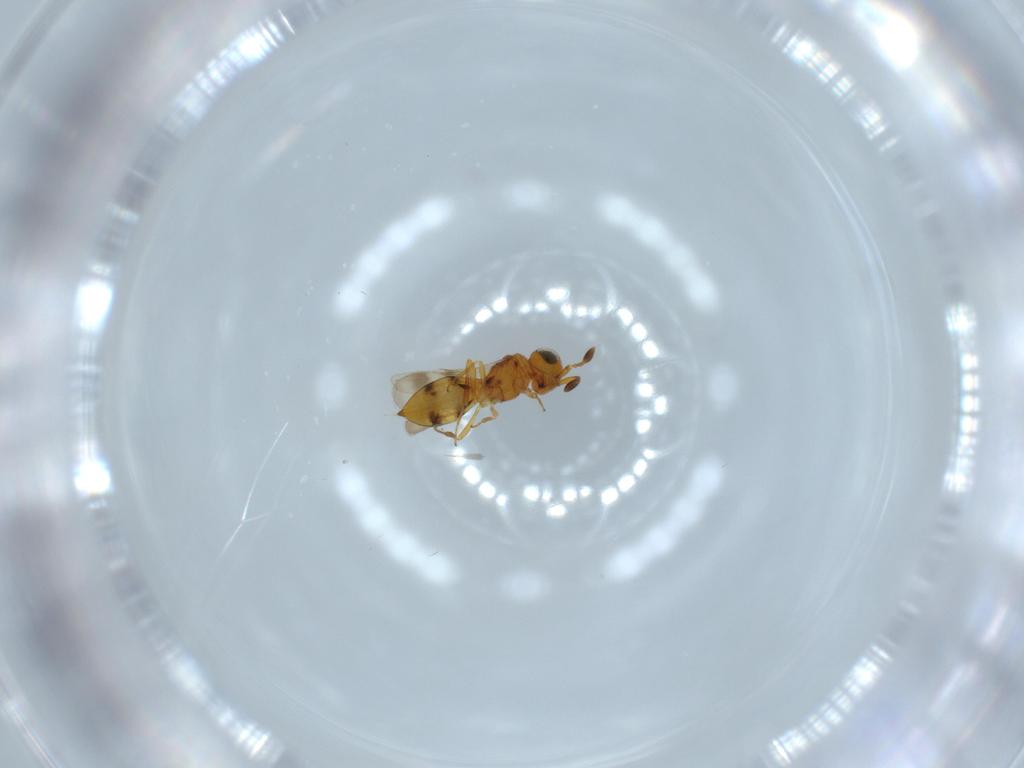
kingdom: Animalia
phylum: Arthropoda
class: Insecta
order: Hymenoptera
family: Scelionidae
